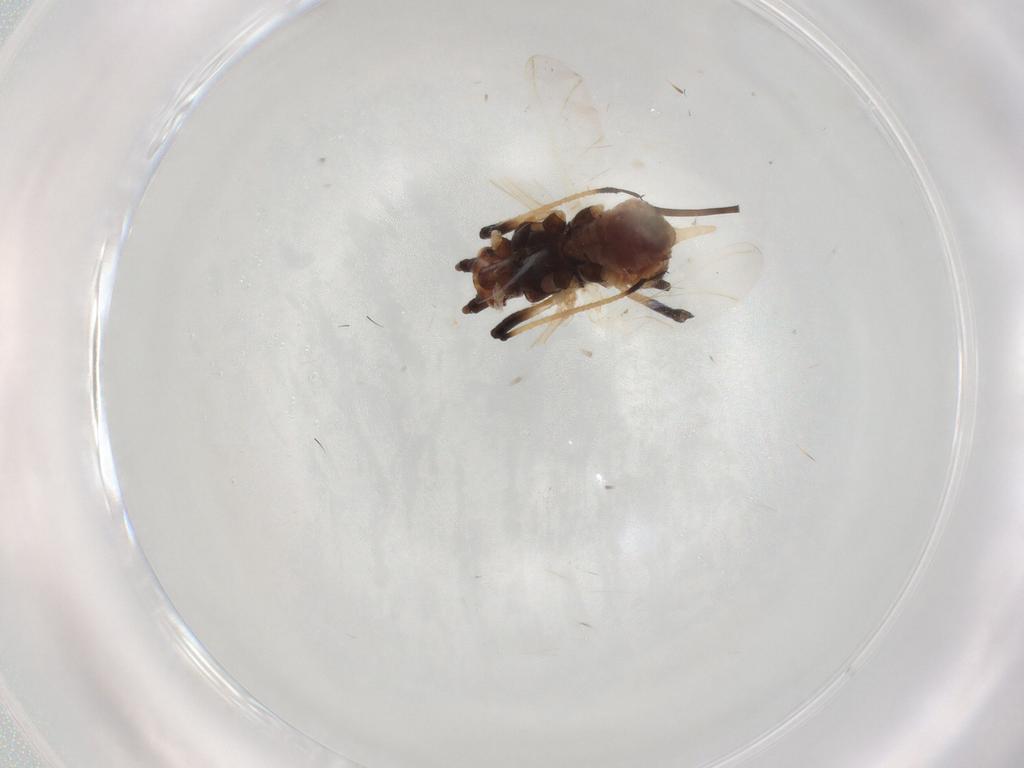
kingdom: Animalia
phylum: Arthropoda
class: Insecta
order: Hemiptera
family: Aphididae
